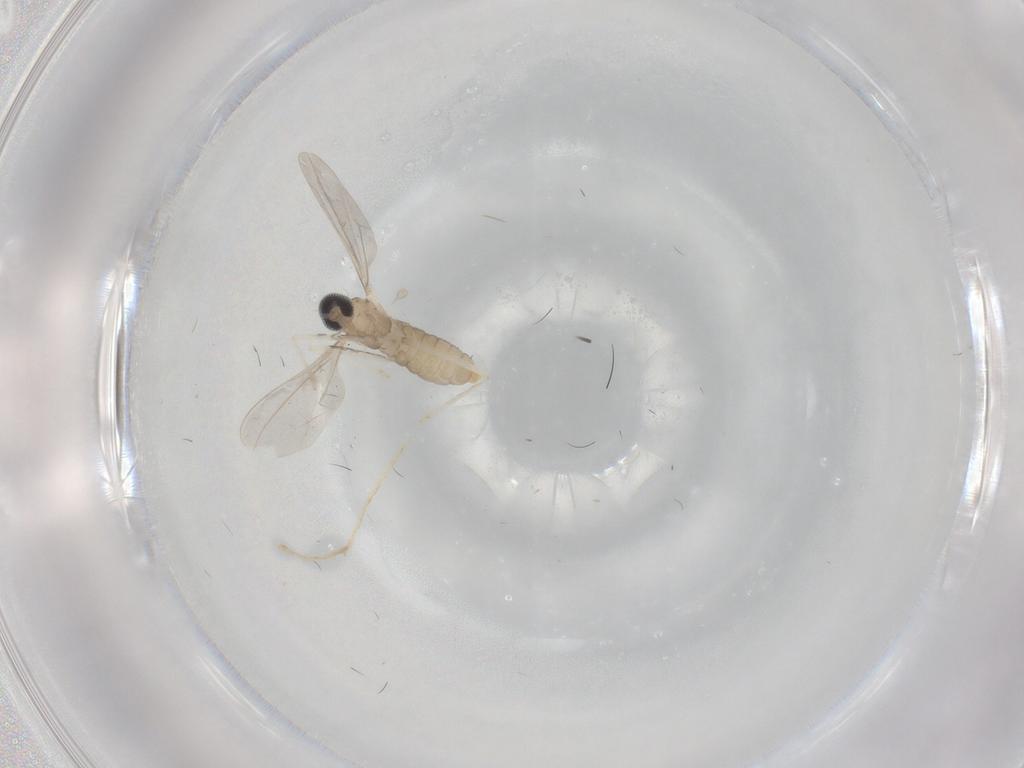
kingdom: Animalia
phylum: Arthropoda
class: Insecta
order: Diptera
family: Cecidomyiidae
